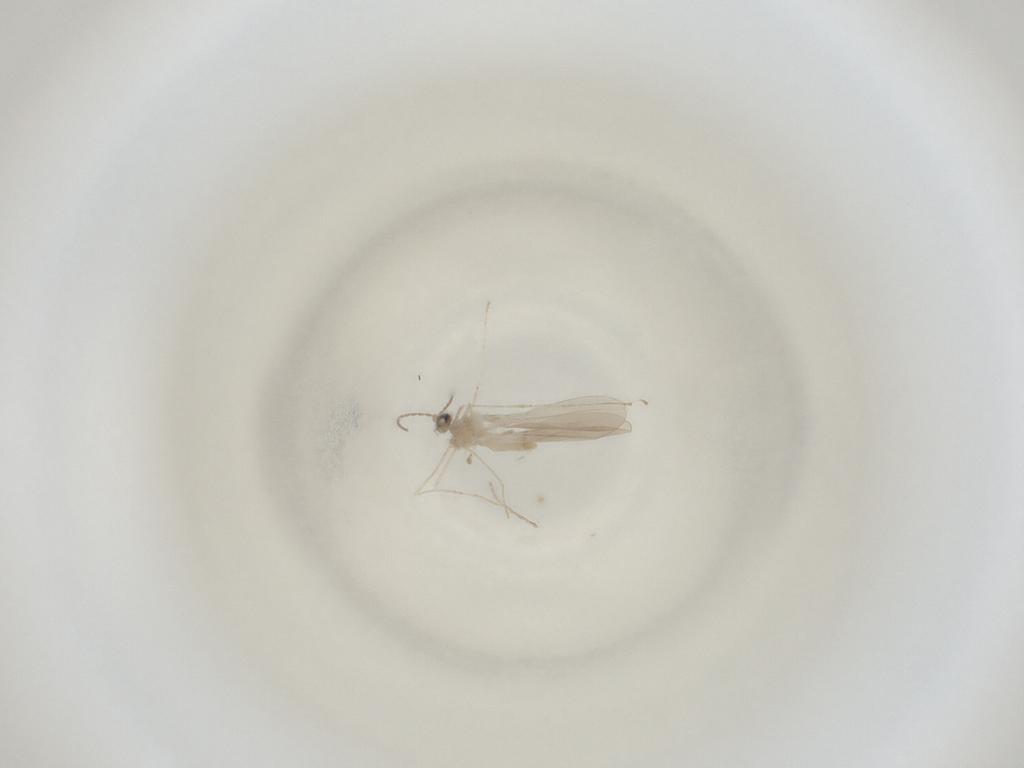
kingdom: Animalia
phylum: Arthropoda
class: Insecta
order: Diptera
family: Cecidomyiidae
